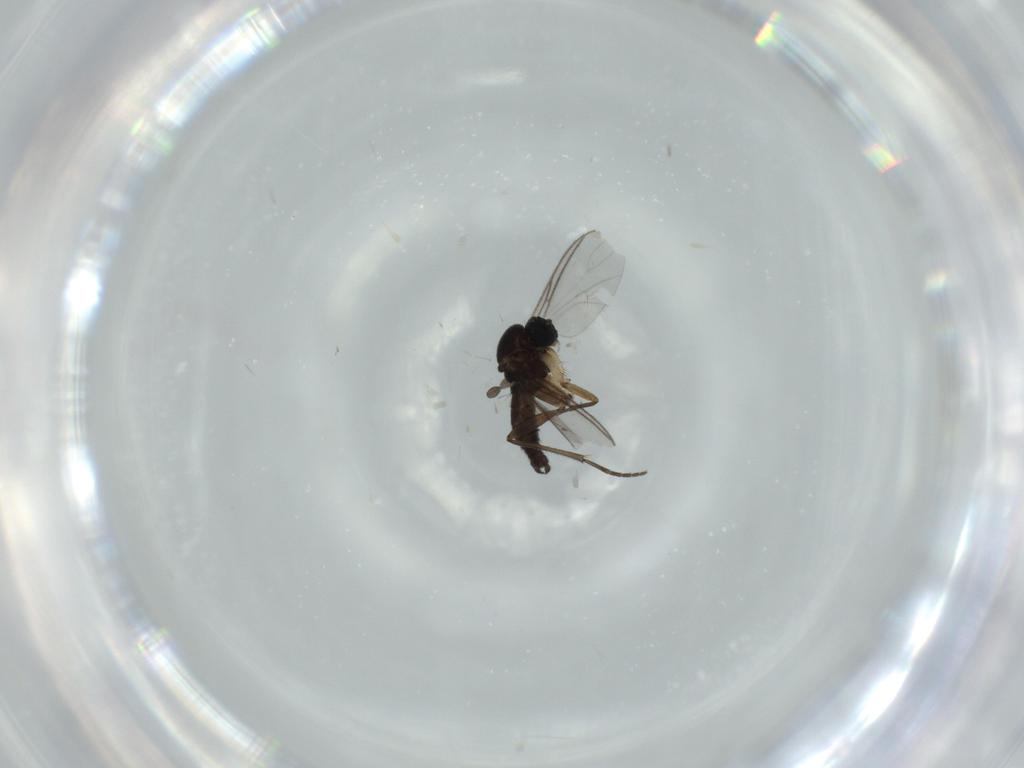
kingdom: Animalia
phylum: Arthropoda
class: Insecta
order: Diptera
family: Sciaridae
